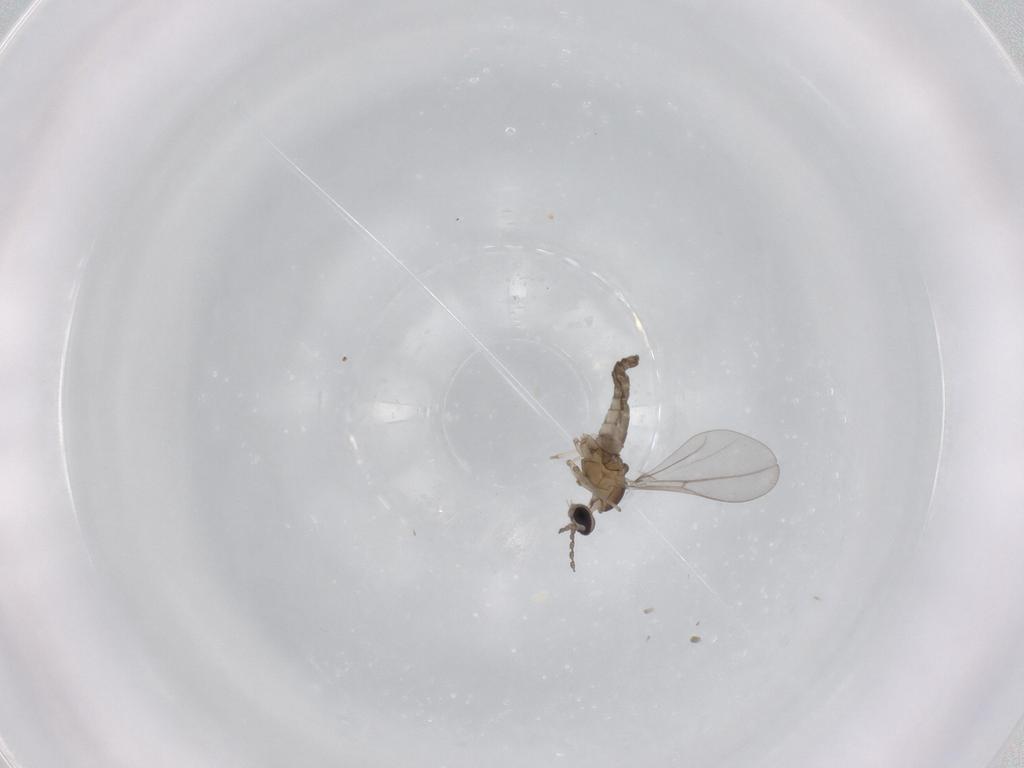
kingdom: Animalia
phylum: Arthropoda
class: Insecta
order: Diptera
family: Cecidomyiidae
